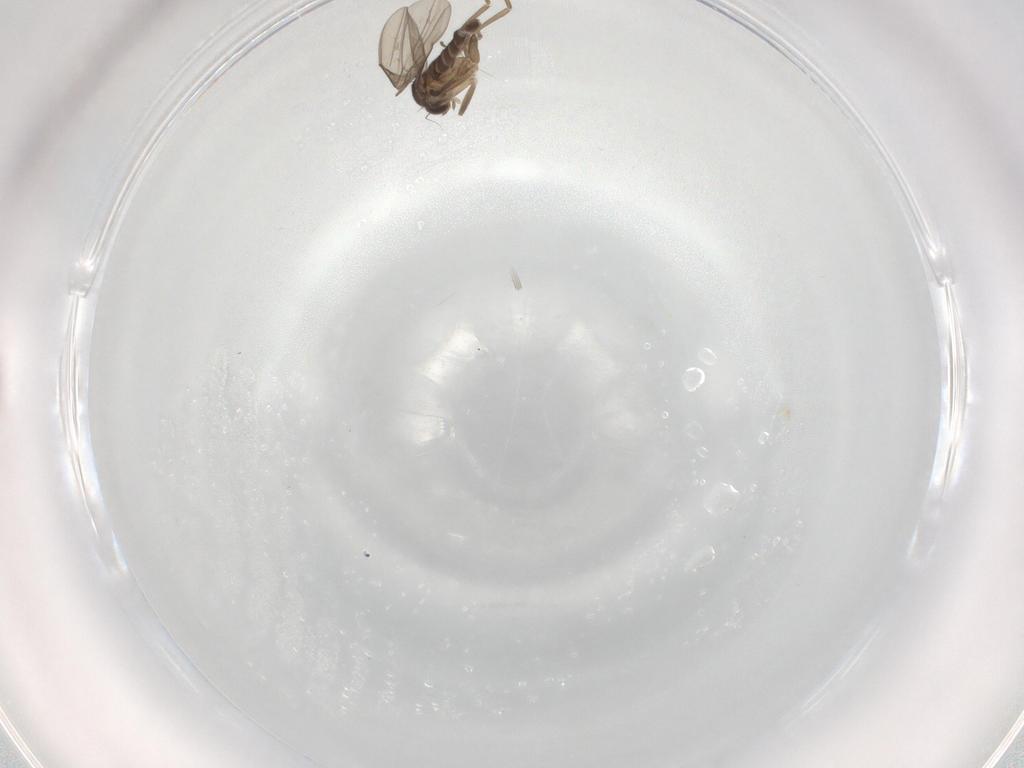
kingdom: Animalia
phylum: Arthropoda
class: Insecta
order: Diptera
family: Phoridae
